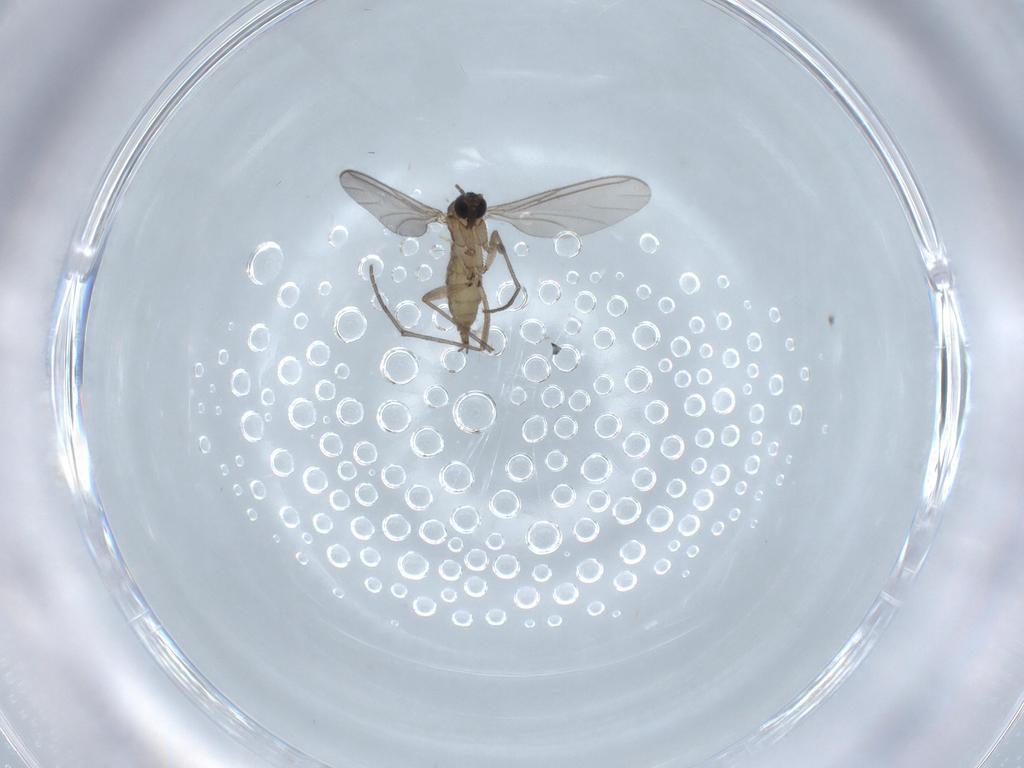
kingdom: Animalia
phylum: Arthropoda
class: Insecta
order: Diptera
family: Sciaridae
